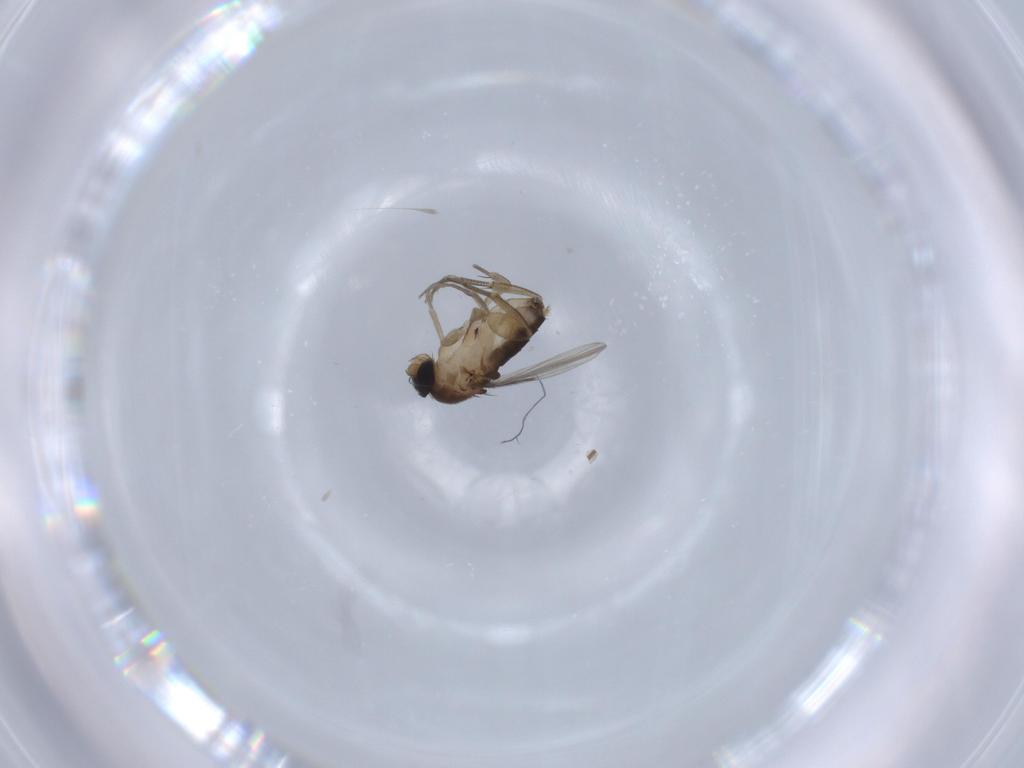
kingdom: Animalia
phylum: Arthropoda
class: Insecta
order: Diptera
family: Phoridae
